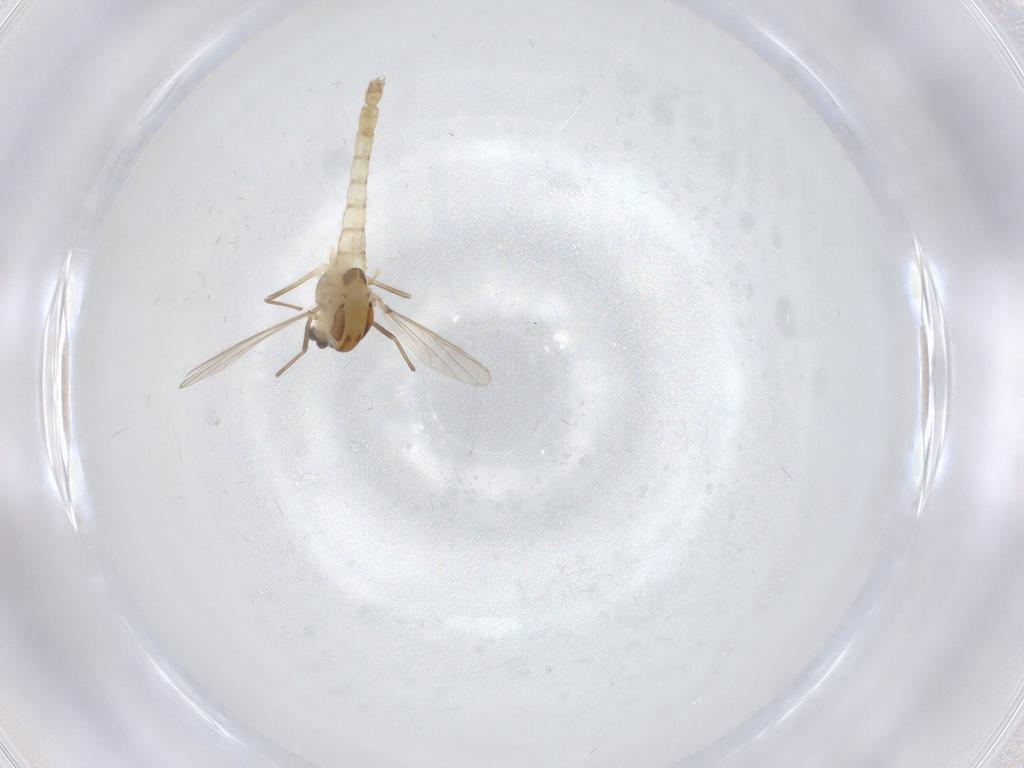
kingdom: Animalia
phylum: Arthropoda
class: Insecta
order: Diptera
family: Chironomidae
